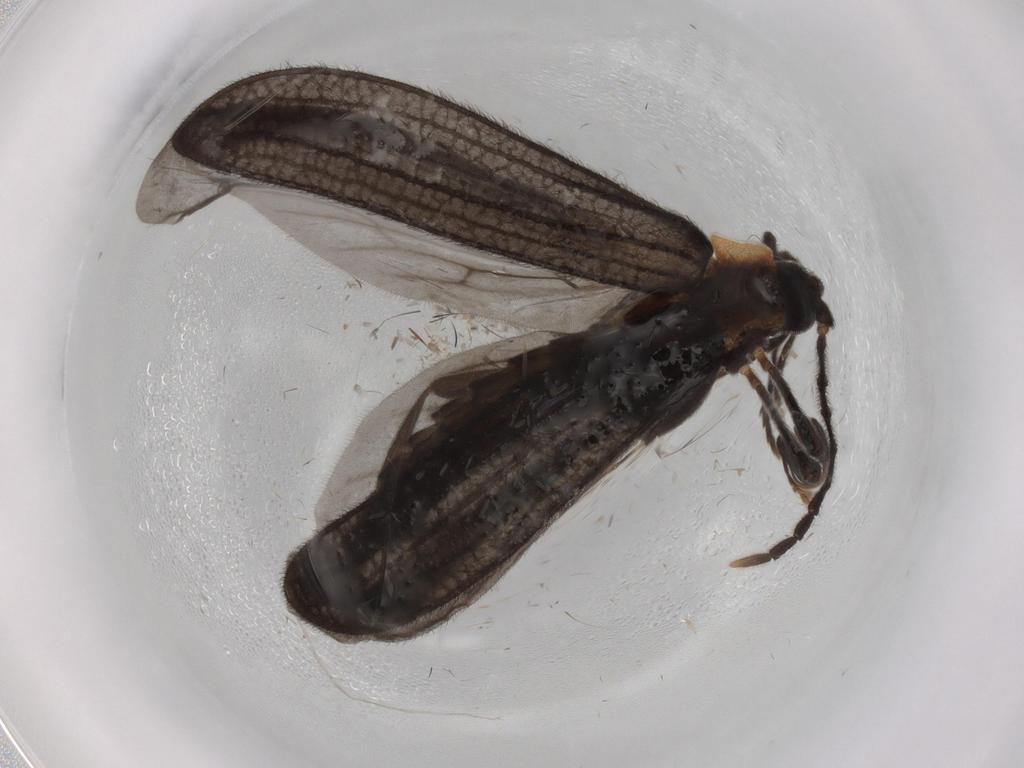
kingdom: Animalia
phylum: Arthropoda
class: Insecta
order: Coleoptera
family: Lycidae
